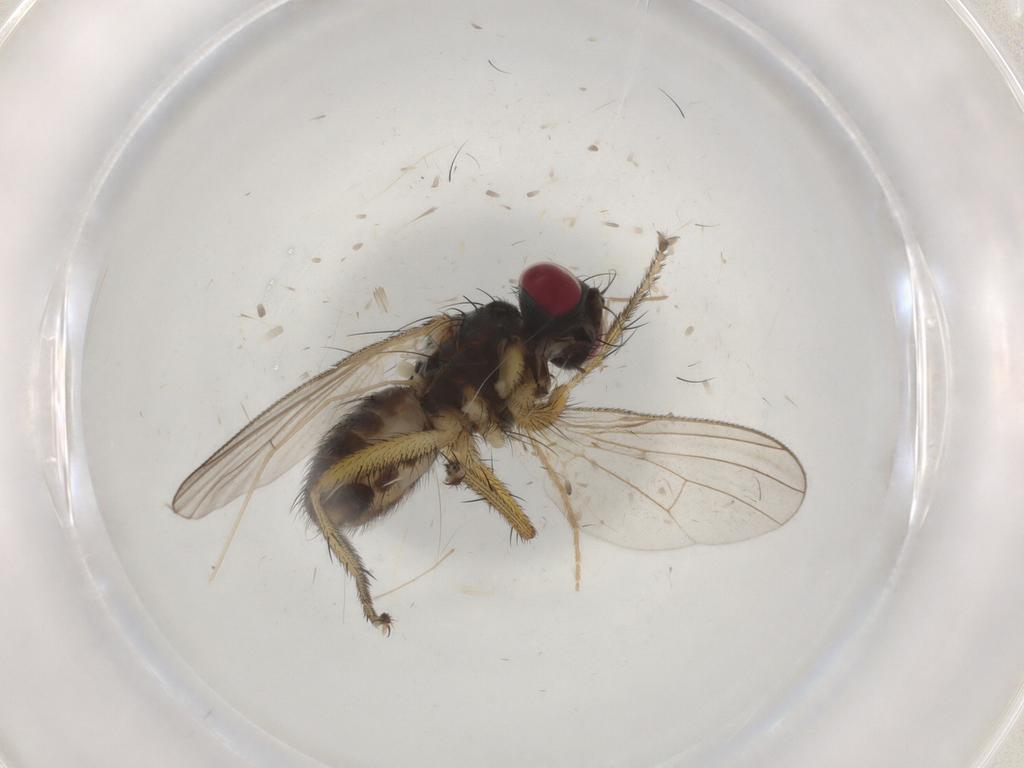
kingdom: Animalia
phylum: Arthropoda
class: Insecta
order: Diptera
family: Muscidae
